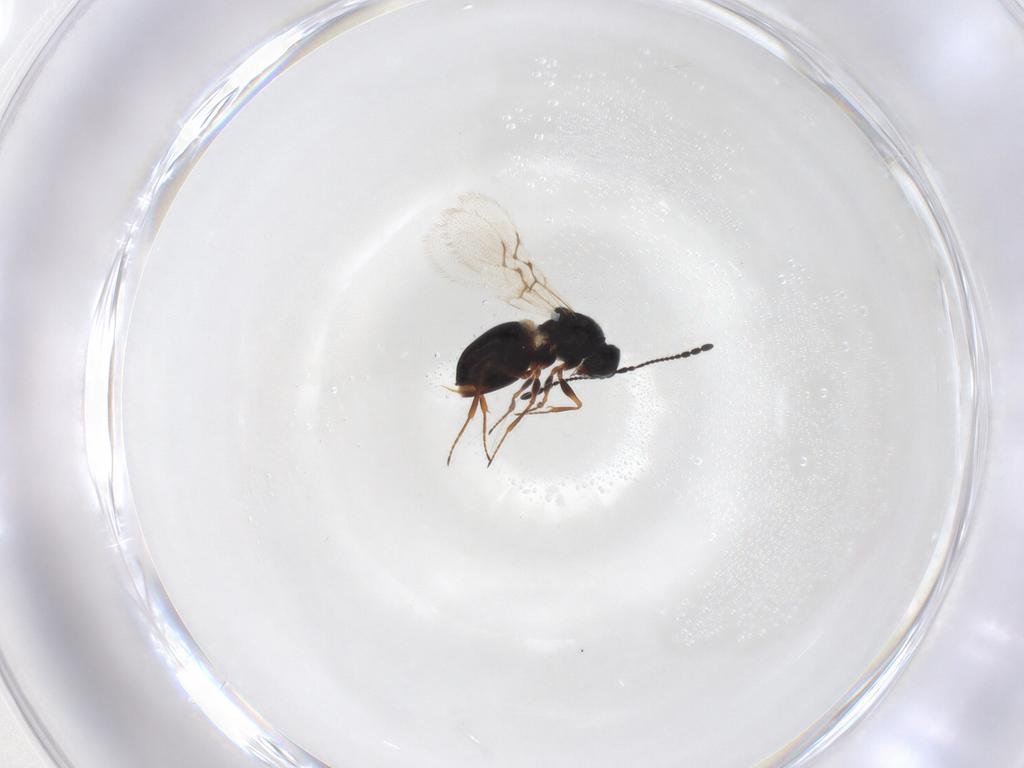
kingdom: Animalia
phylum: Arthropoda
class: Insecta
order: Hymenoptera
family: Figitidae
